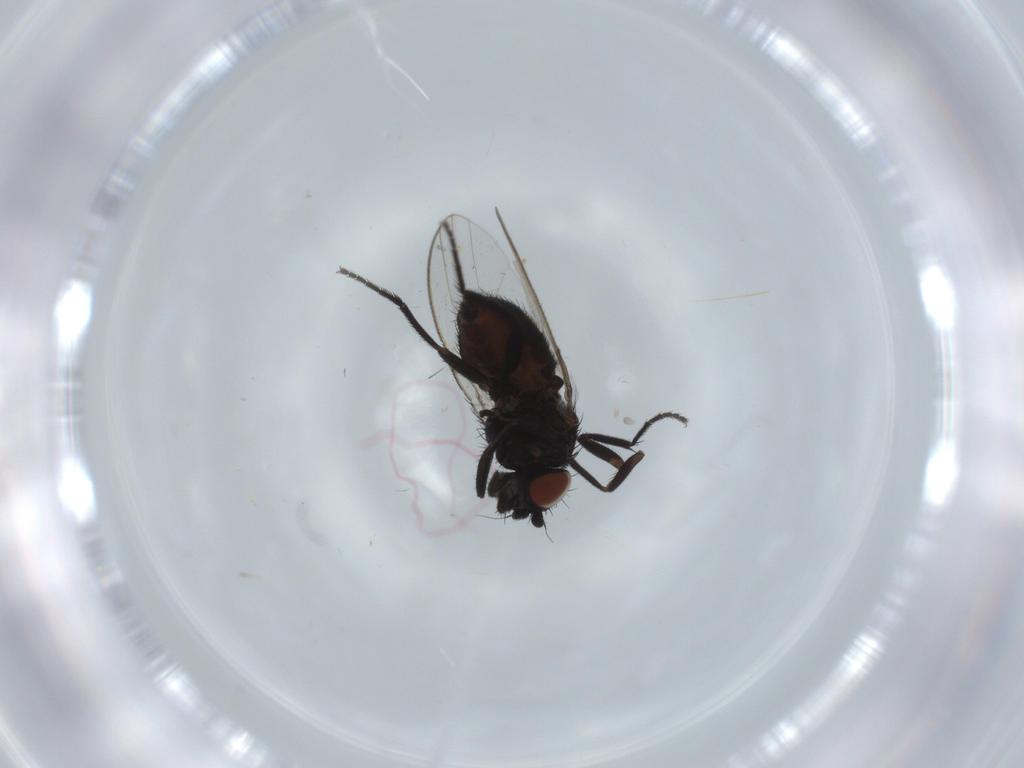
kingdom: Animalia
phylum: Arthropoda
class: Insecta
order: Diptera
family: Milichiidae
